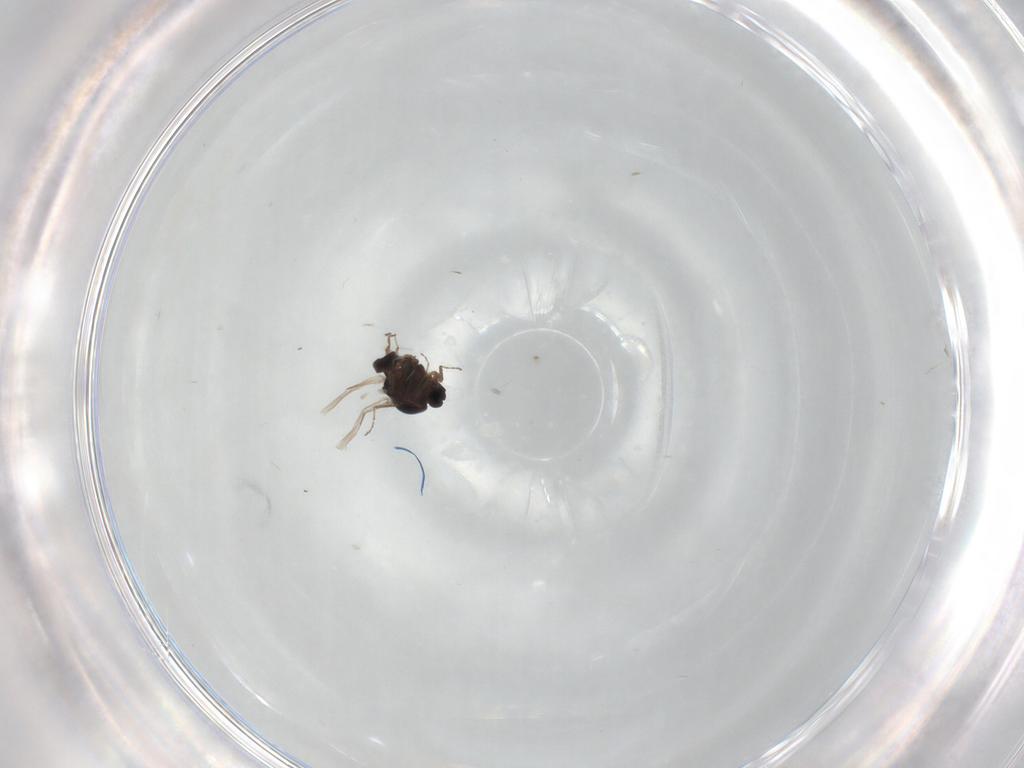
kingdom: Animalia
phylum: Arthropoda
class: Insecta
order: Diptera
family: Ceratopogonidae
